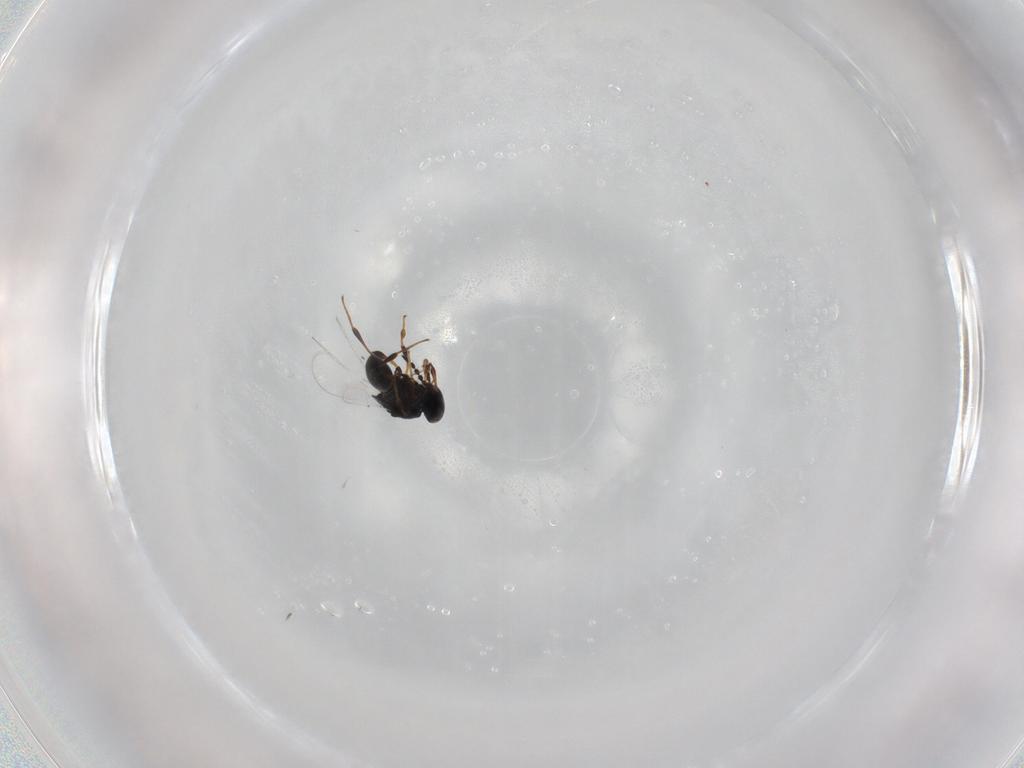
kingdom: Animalia
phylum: Arthropoda
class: Insecta
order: Hymenoptera
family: Platygastridae
